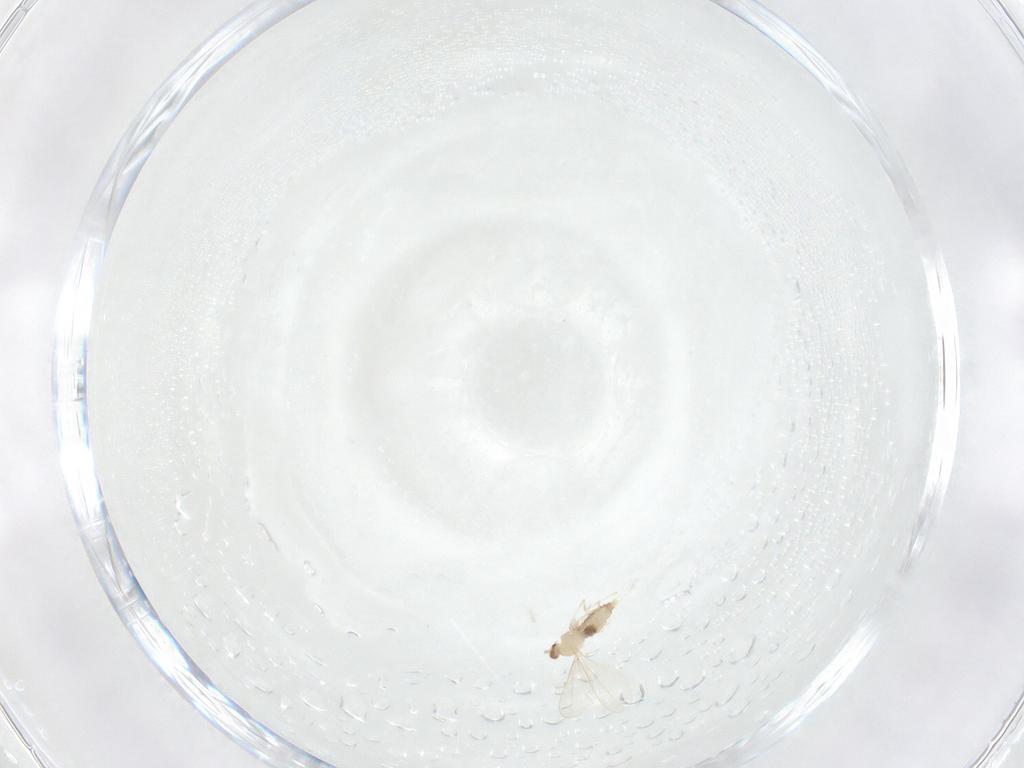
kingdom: Animalia
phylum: Arthropoda
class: Insecta
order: Diptera
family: Cecidomyiidae
